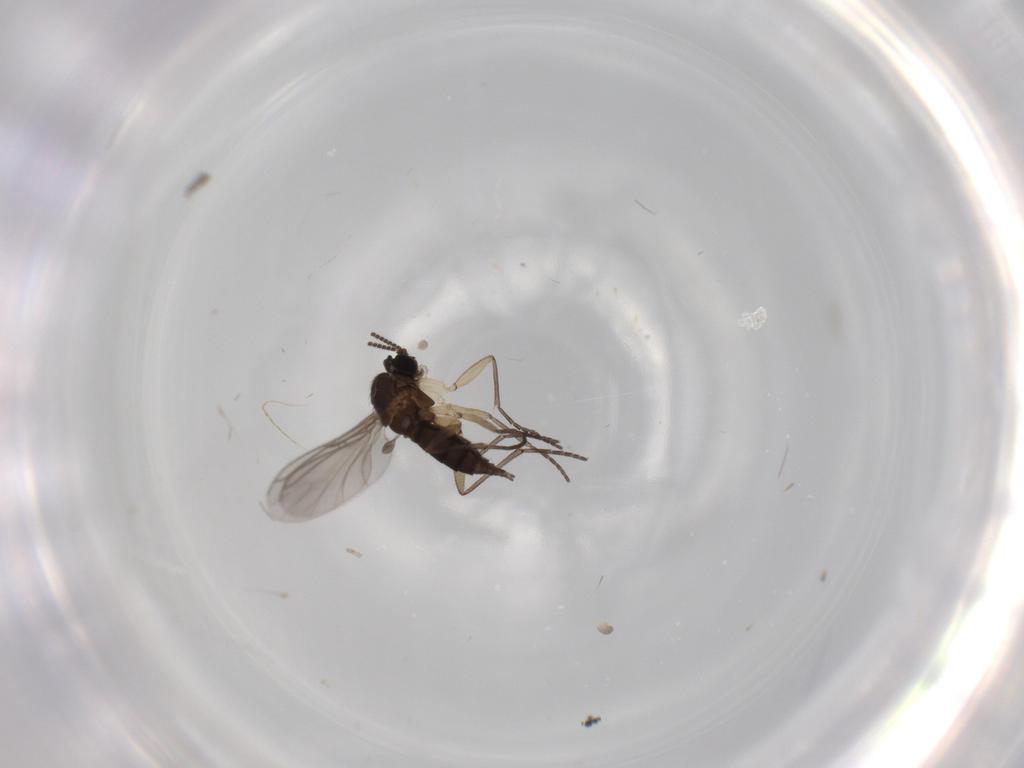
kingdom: Animalia
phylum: Arthropoda
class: Insecta
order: Diptera
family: Sciaridae
